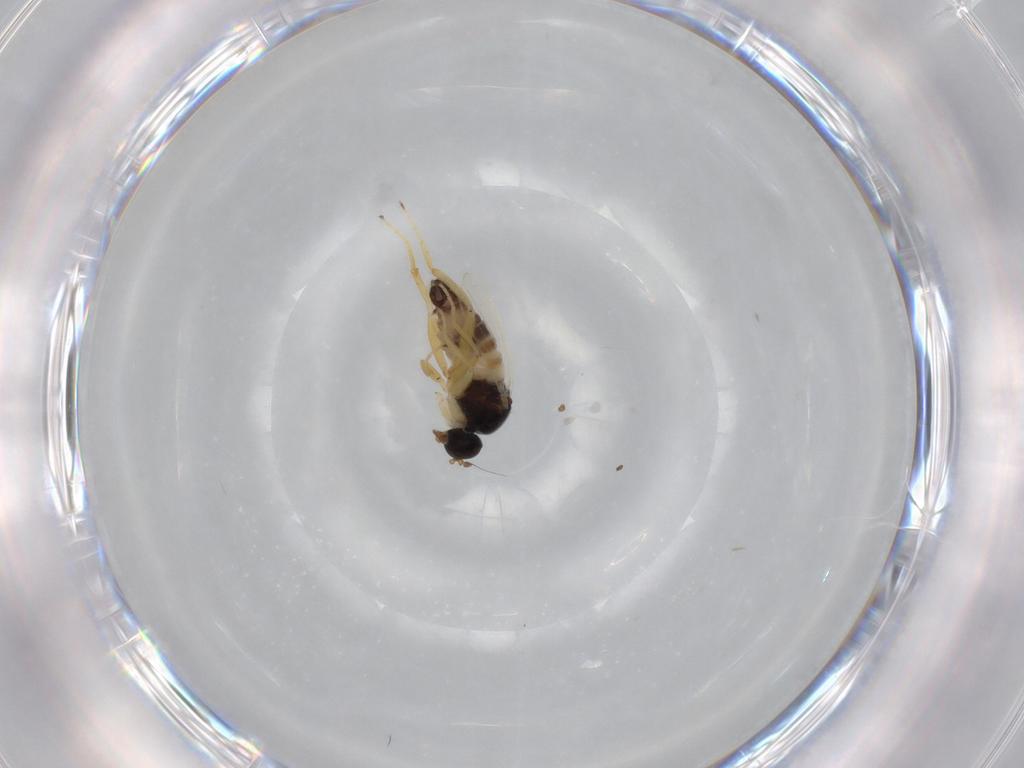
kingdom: Animalia
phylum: Arthropoda
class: Insecta
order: Diptera
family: Hybotidae
